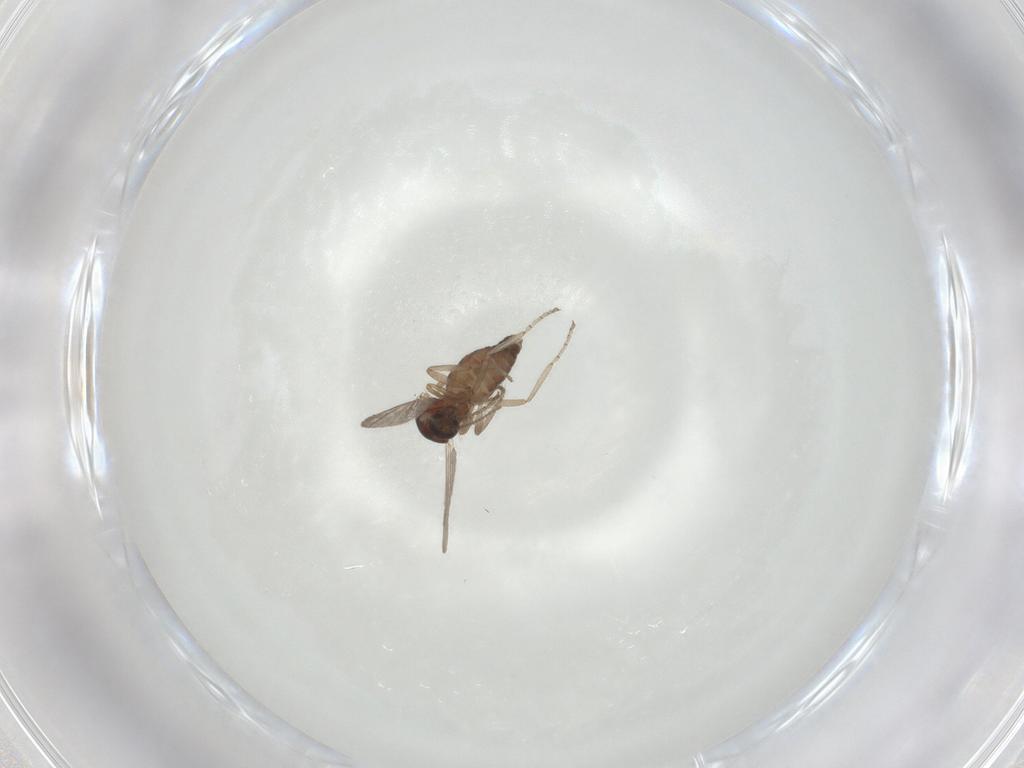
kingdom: Animalia
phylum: Arthropoda
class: Insecta
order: Diptera
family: Ceratopogonidae
